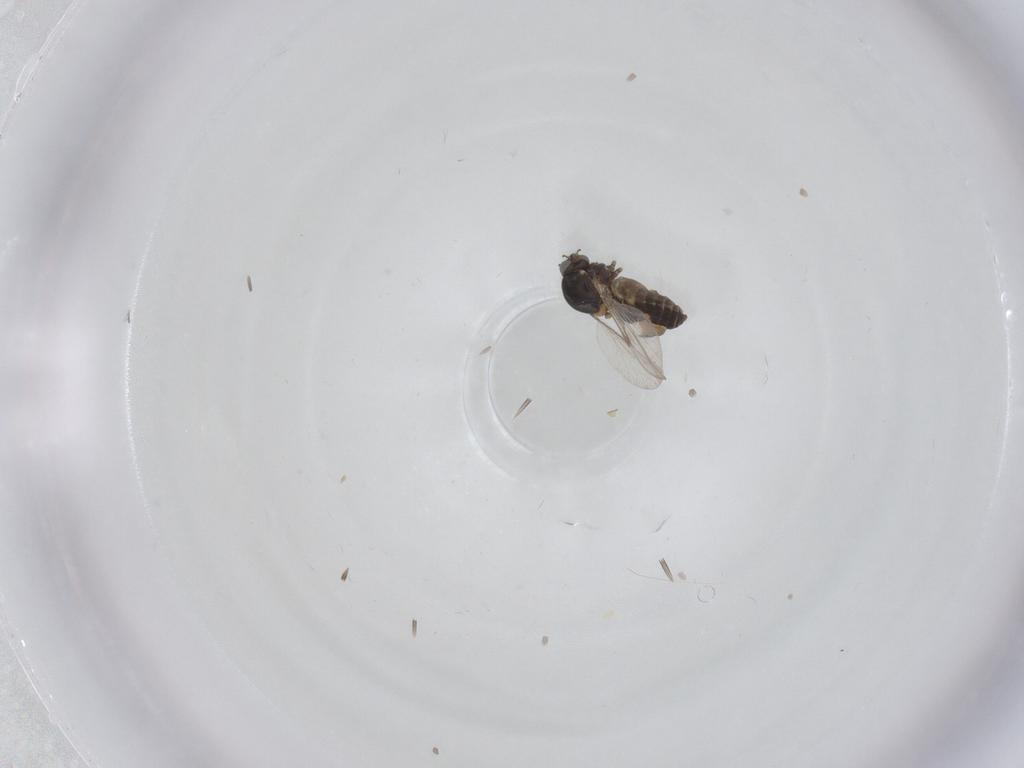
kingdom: Animalia
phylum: Arthropoda
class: Insecta
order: Diptera
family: Ceratopogonidae
